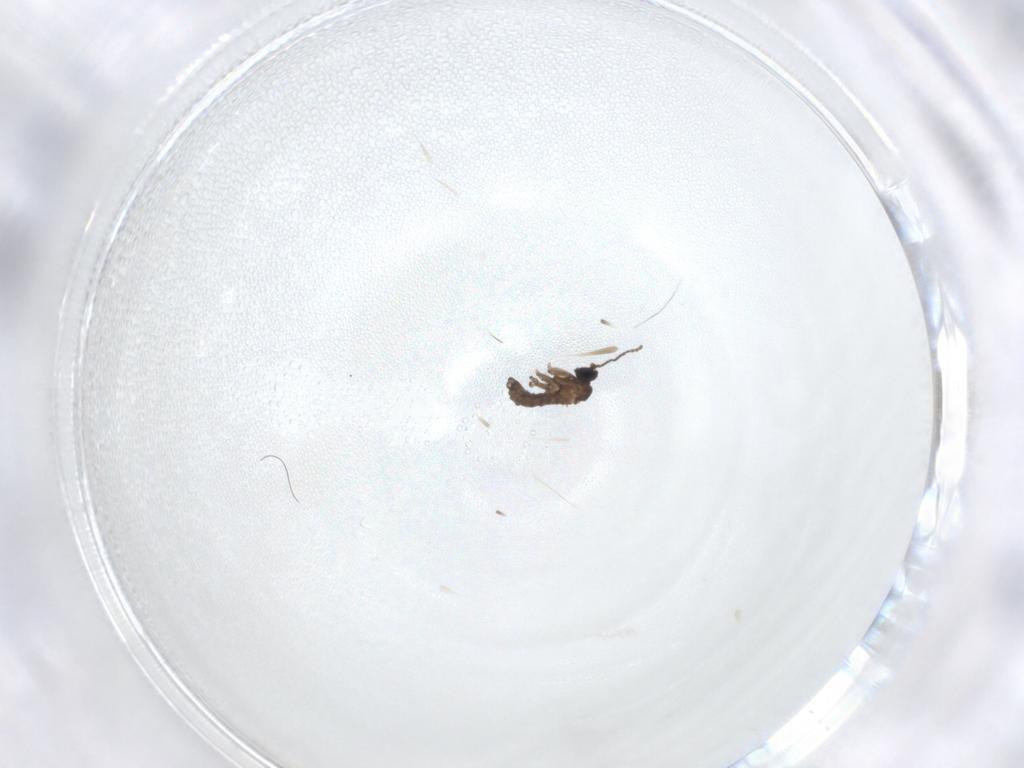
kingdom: Animalia
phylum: Arthropoda
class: Insecta
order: Diptera
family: Sciaridae
